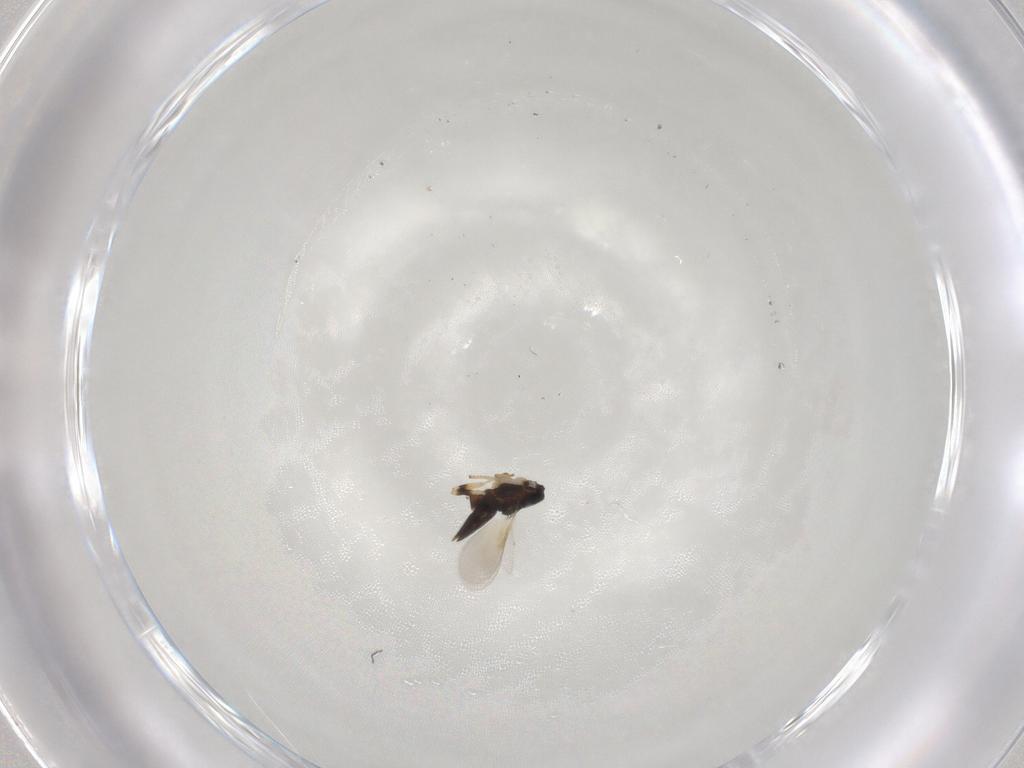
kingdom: Animalia
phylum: Arthropoda
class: Insecta
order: Hymenoptera
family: Encyrtidae
